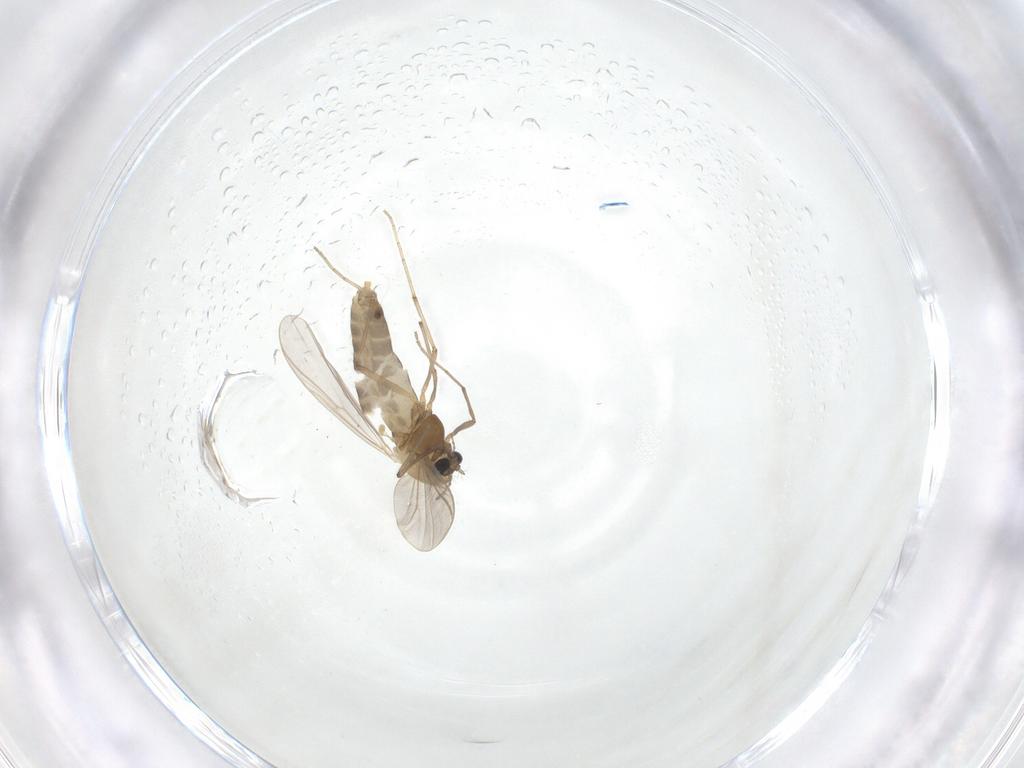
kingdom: Animalia
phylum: Arthropoda
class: Insecta
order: Diptera
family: Chironomidae
